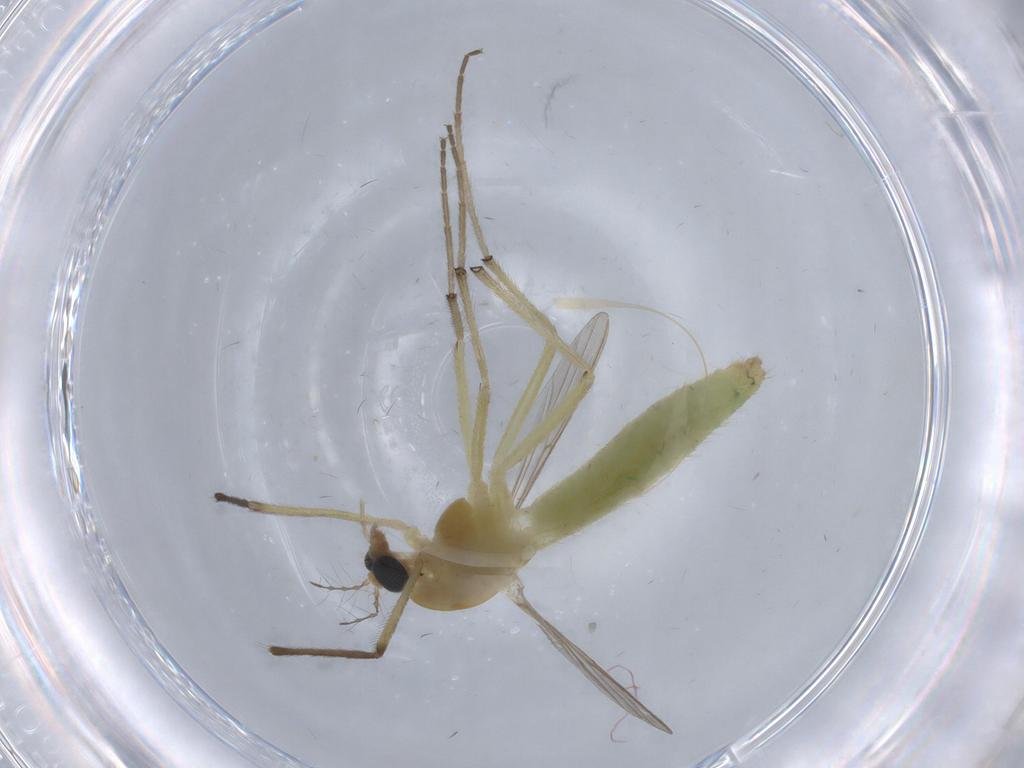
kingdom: Animalia
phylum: Arthropoda
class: Insecta
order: Diptera
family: Chironomidae
